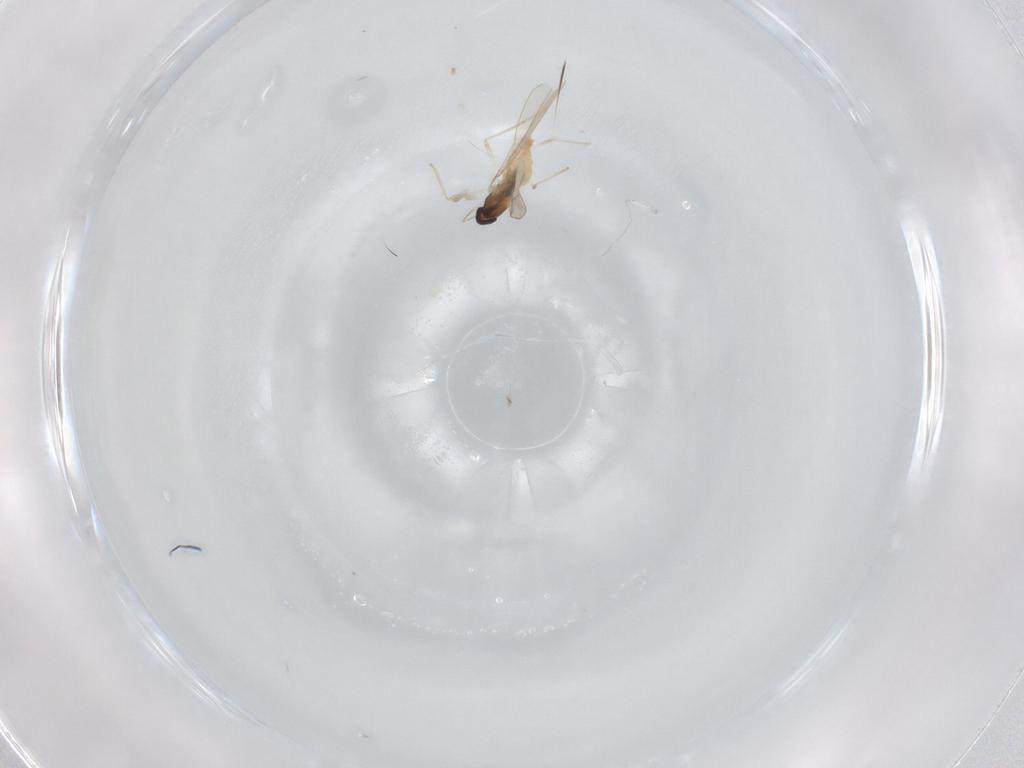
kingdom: Animalia
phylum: Arthropoda
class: Insecta
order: Diptera
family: Cecidomyiidae
